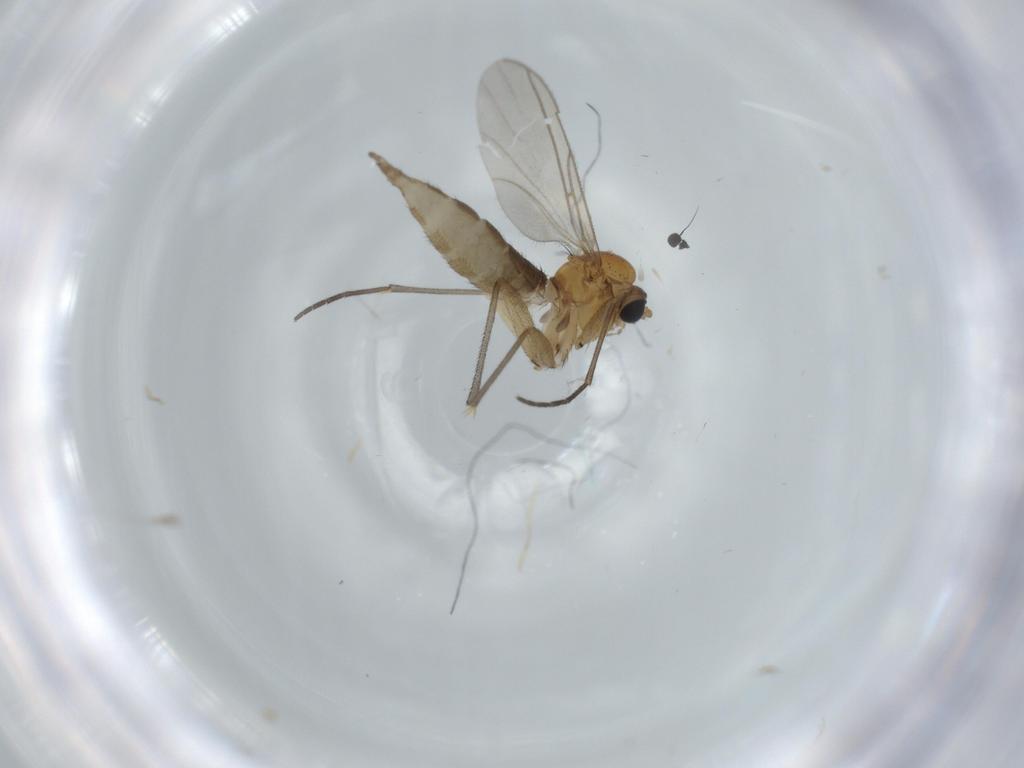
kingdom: Animalia
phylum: Arthropoda
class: Insecta
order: Diptera
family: Sciaridae
